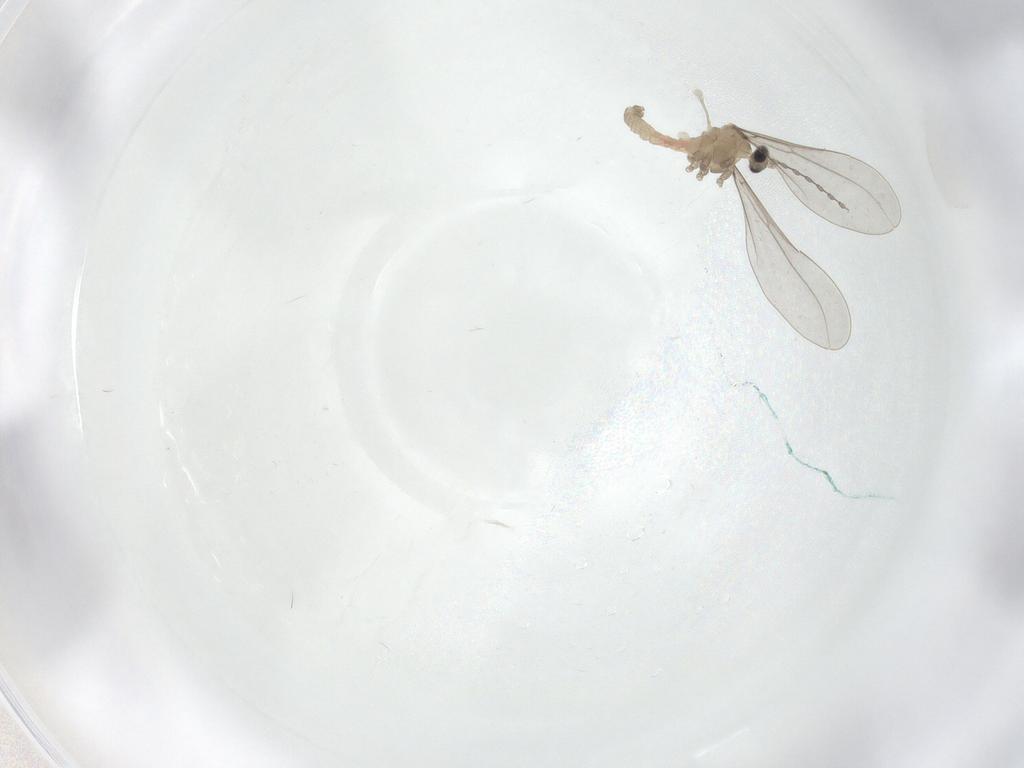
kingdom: Animalia
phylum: Arthropoda
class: Insecta
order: Diptera
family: Cecidomyiidae
